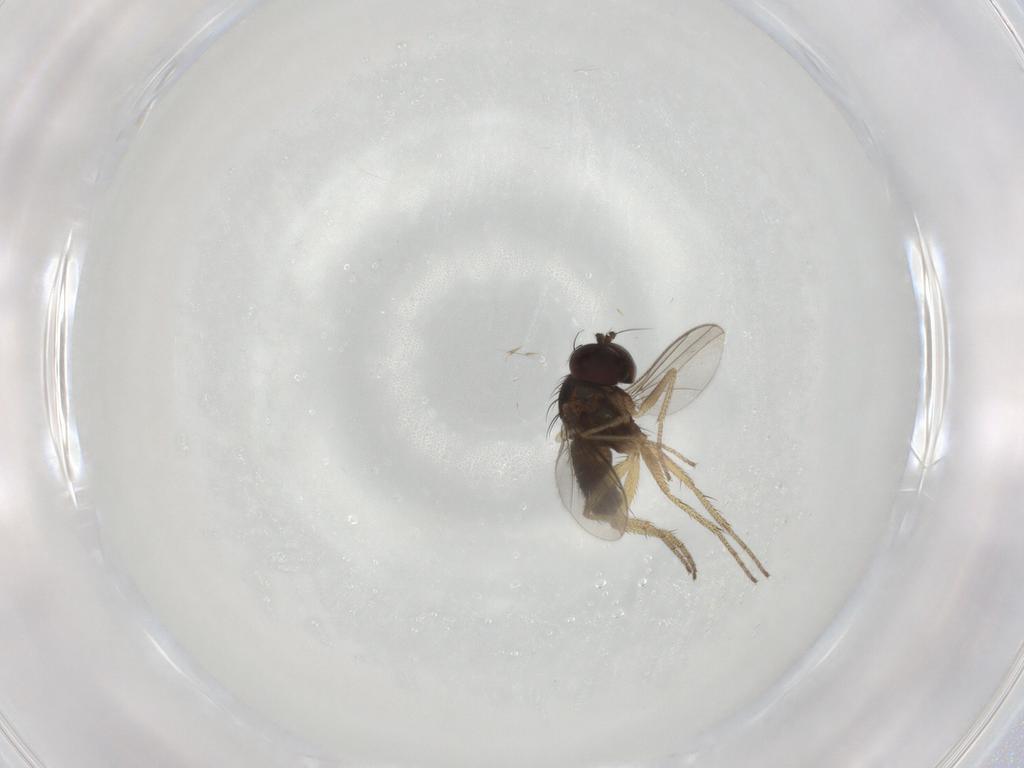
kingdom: Animalia
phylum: Arthropoda
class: Insecta
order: Diptera
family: Dolichopodidae
